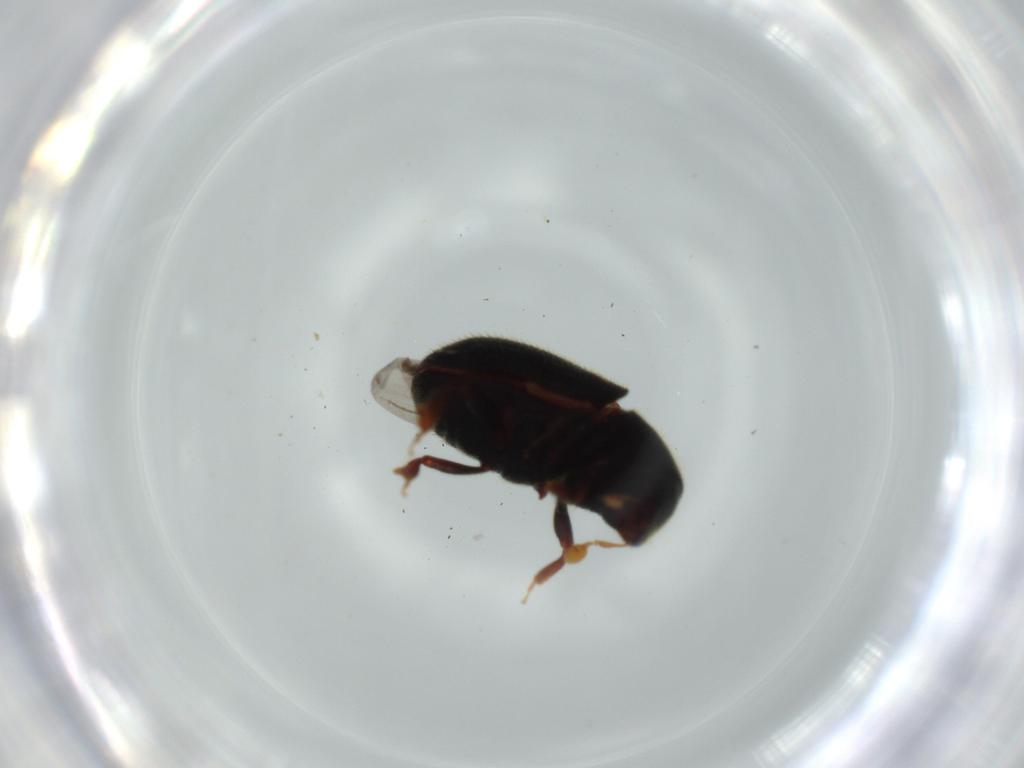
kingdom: Animalia
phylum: Arthropoda
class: Insecta
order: Coleoptera
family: Curculionidae
